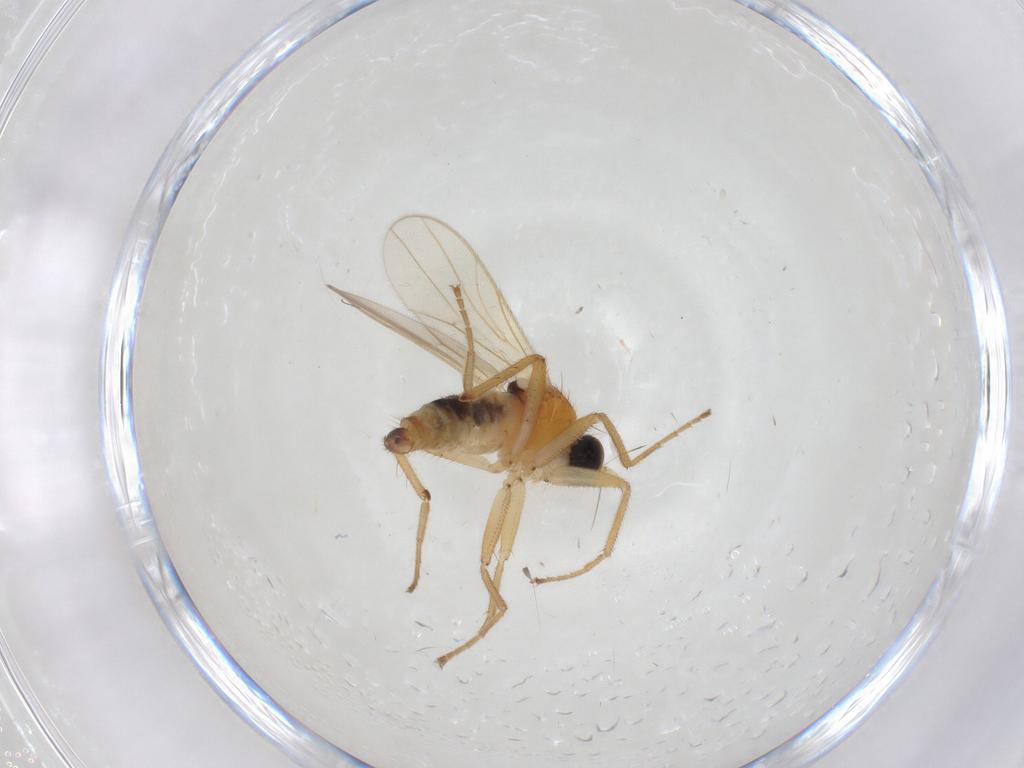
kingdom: Animalia
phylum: Arthropoda
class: Insecta
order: Diptera
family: Hybotidae
